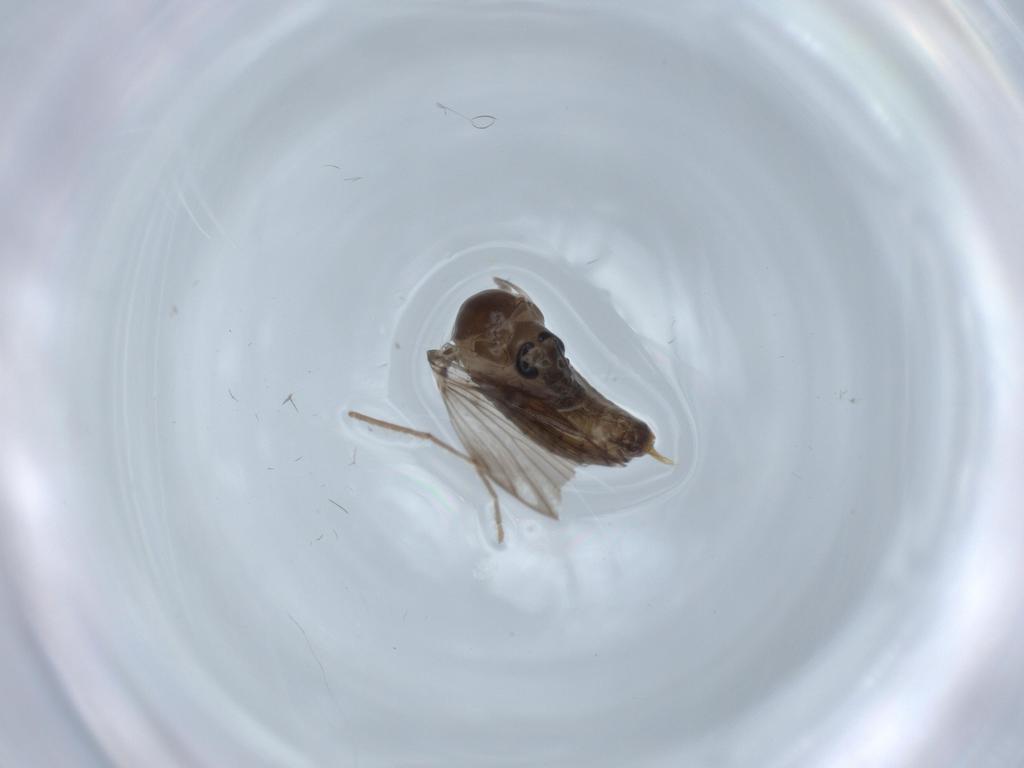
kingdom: Animalia
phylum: Arthropoda
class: Insecta
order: Diptera
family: Psychodidae
